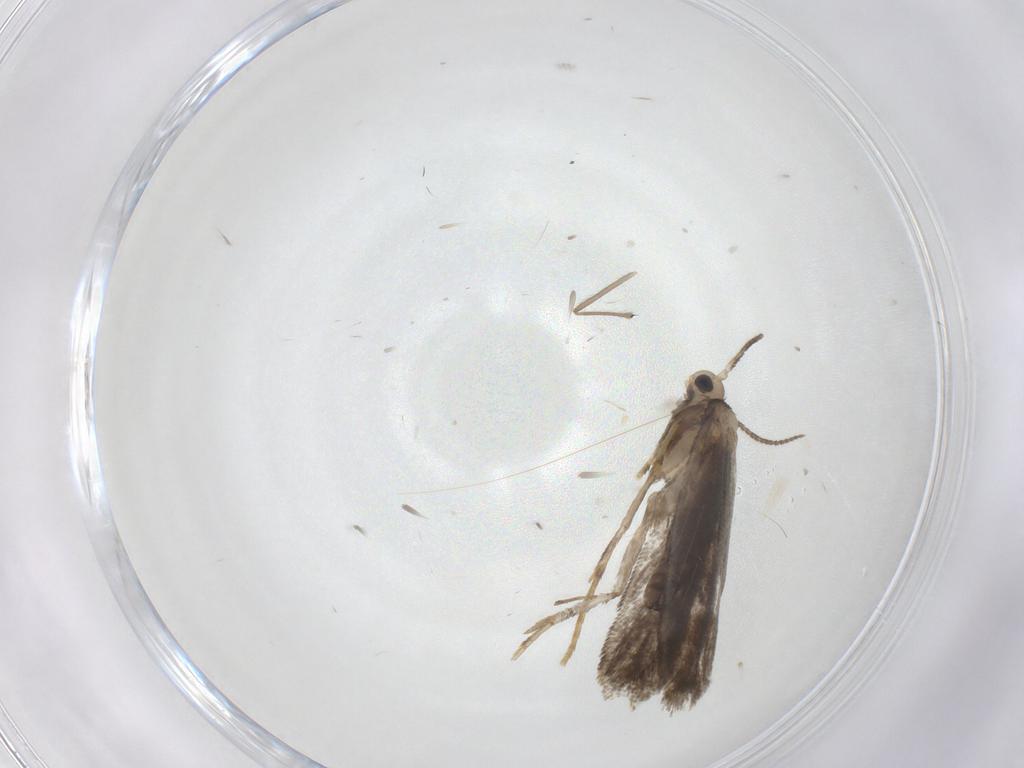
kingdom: Animalia
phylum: Arthropoda
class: Insecta
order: Lepidoptera
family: Psychidae
